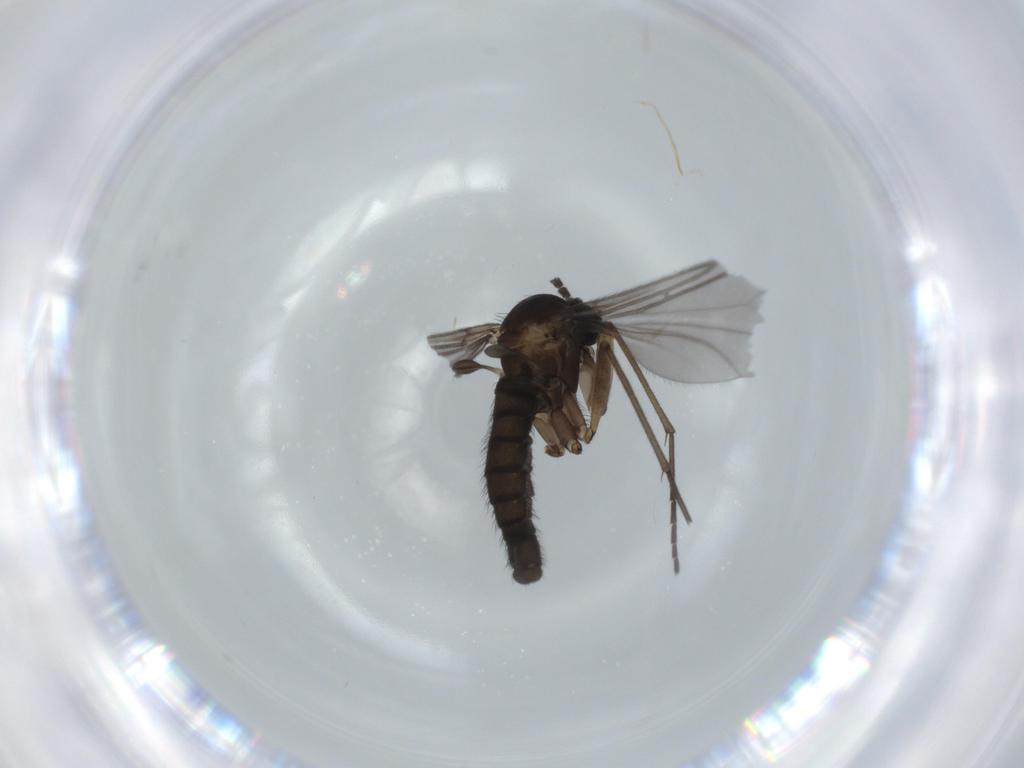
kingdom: Animalia
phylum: Arthropoda
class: Insecta
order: Diptera
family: Sciaridae
